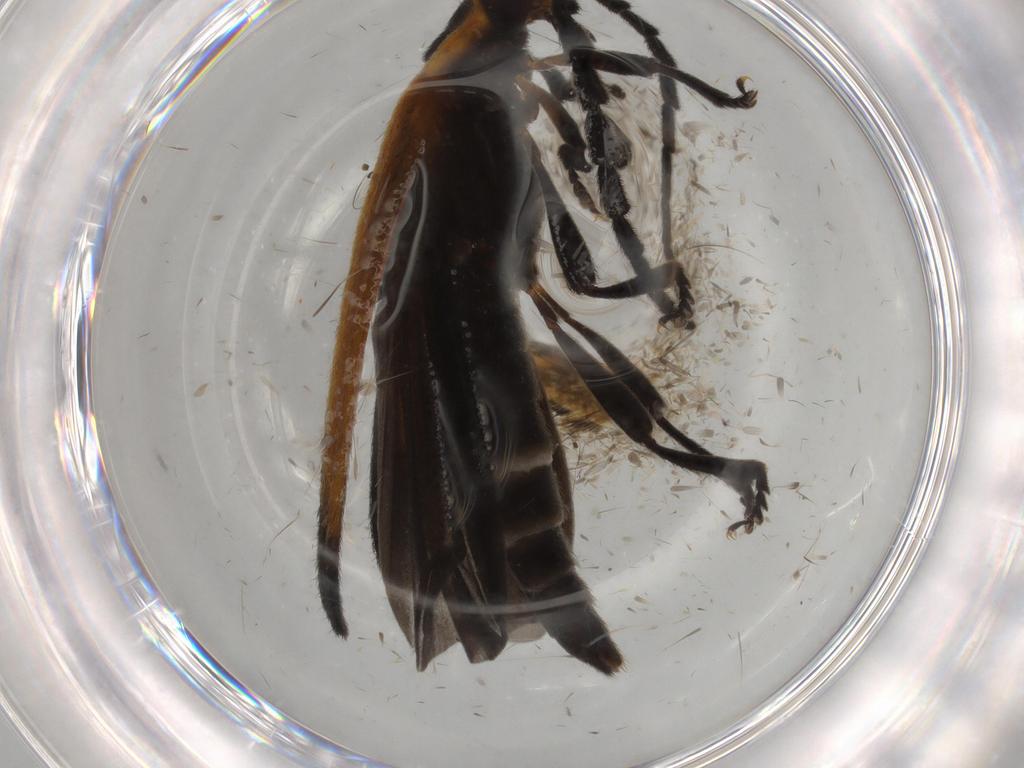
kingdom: Animalia
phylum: Arthropoda
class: Insecta
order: Coleoptera
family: Lycidae
